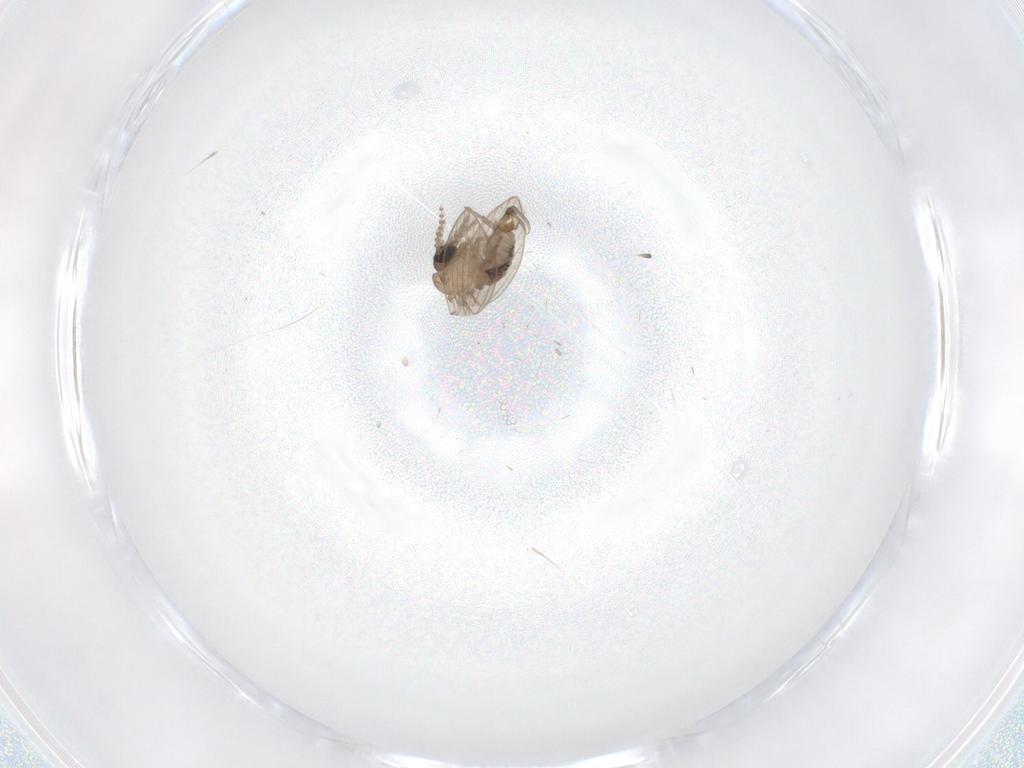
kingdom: Animalia
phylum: Arthropoda
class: Insecta
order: Diptera
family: Psychodidae
